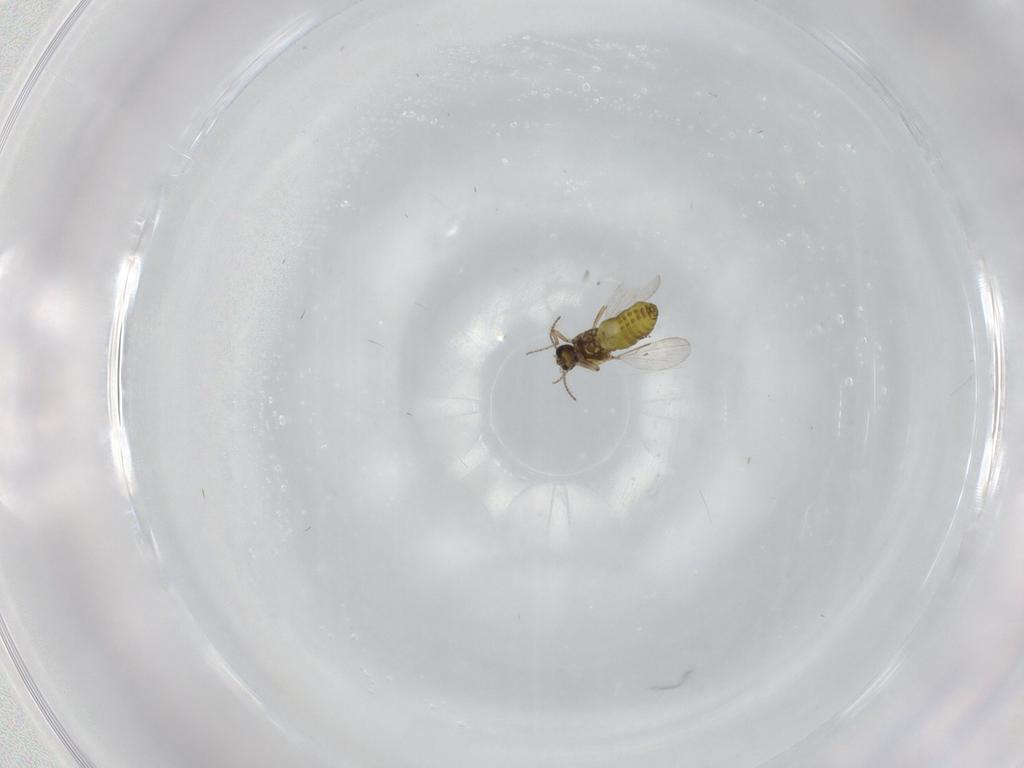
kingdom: Animalia
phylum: Arthropoda
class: Insecta
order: Diptera
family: Ceratopogonidae
